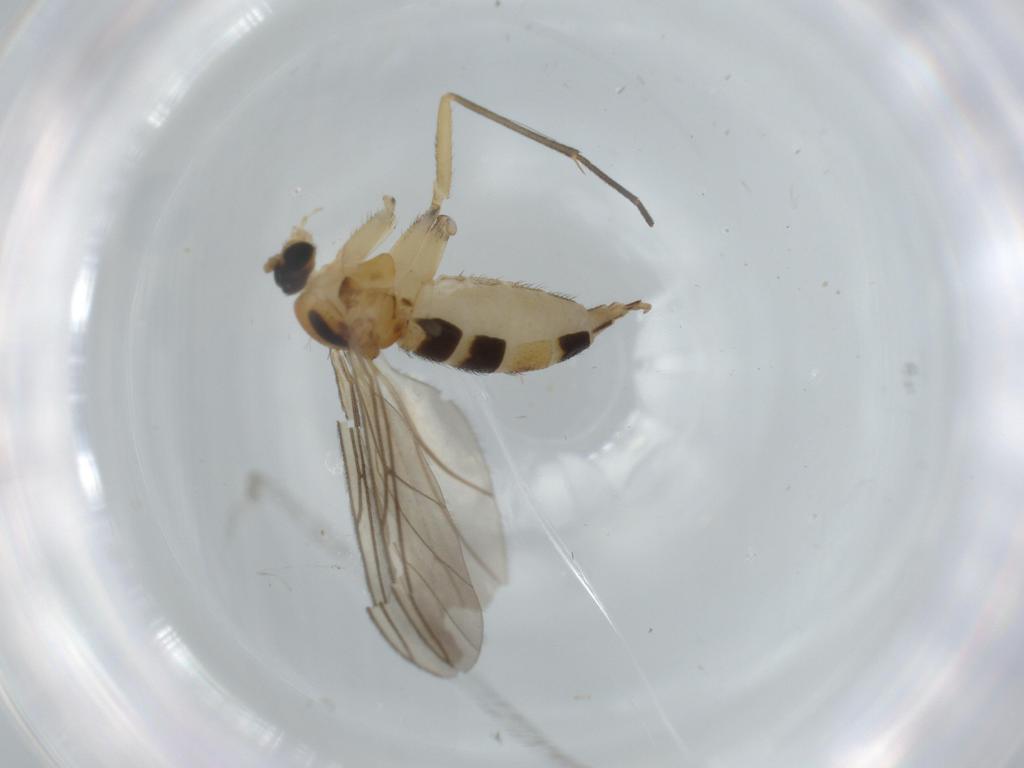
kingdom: Animalia
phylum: Arthropoda
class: Insecta
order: Diptera
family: Sciaridae
